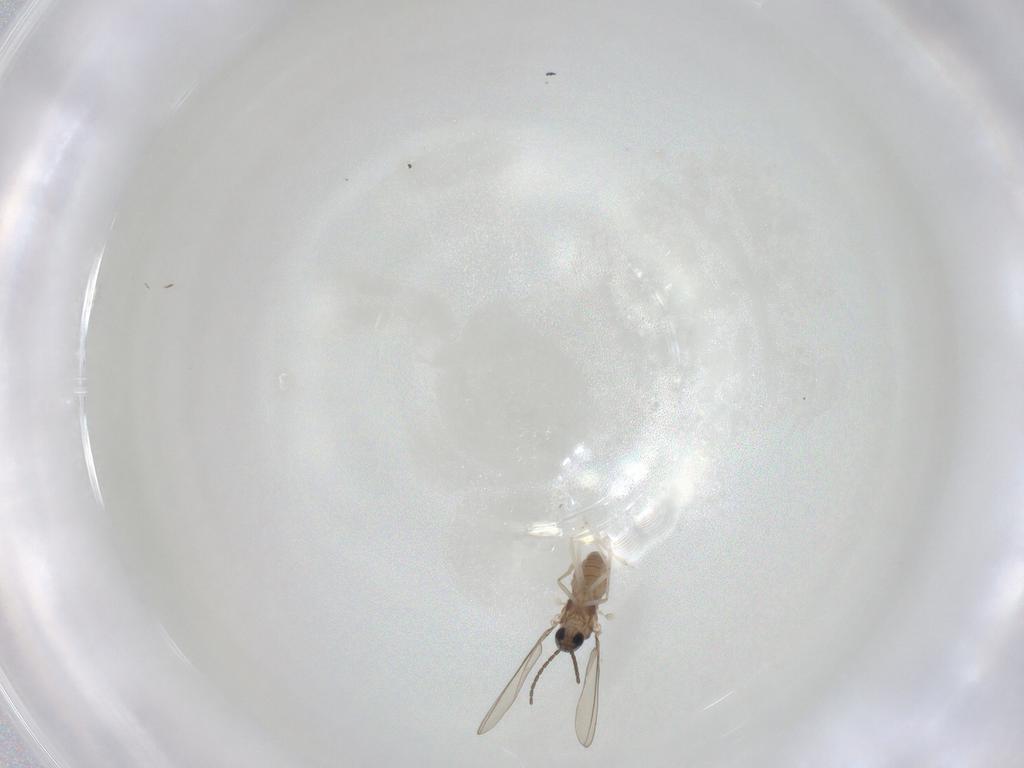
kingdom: Animalia
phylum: Arthropoda
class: Insecta
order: Diptera
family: Cecidomyiidae
